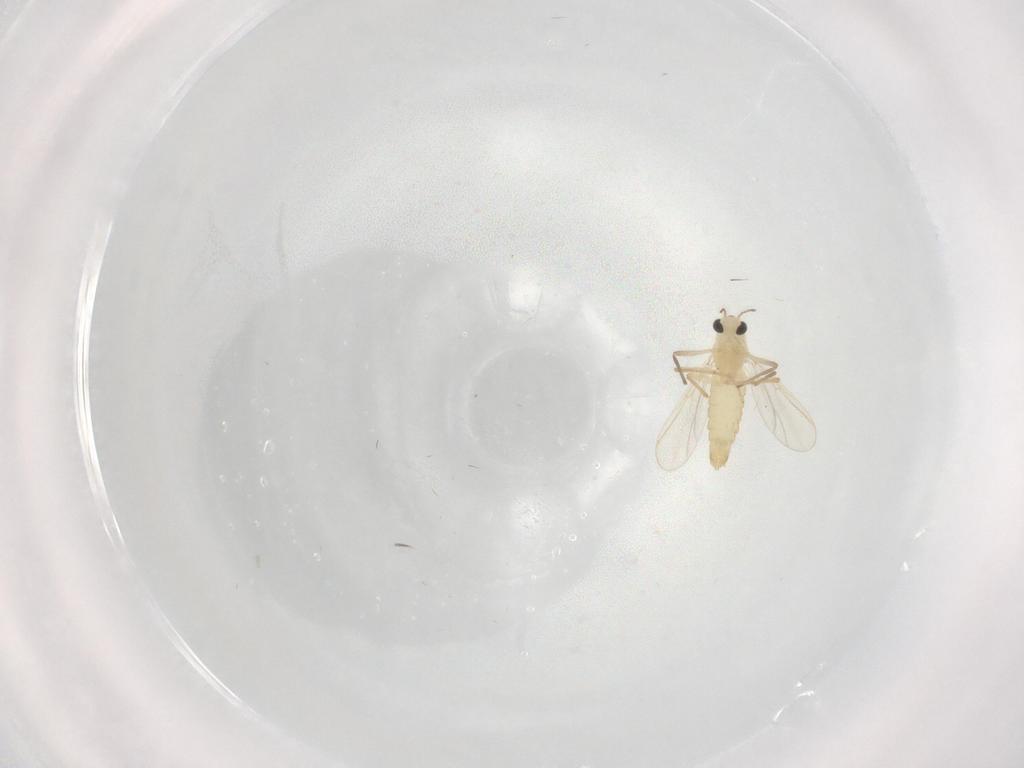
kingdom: Animalia
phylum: Arthropoda
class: Insecta
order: Diptera
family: Chironomidae
